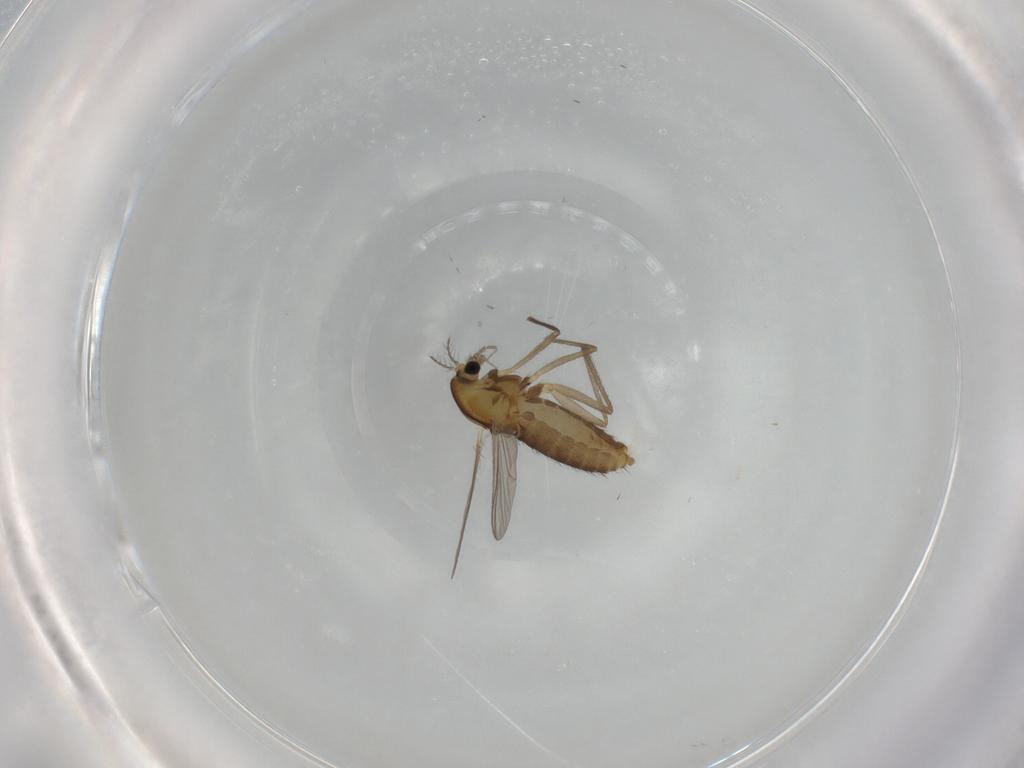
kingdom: Animalia
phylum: Arthropoda
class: Insecta
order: Diptera
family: Chironomidae
